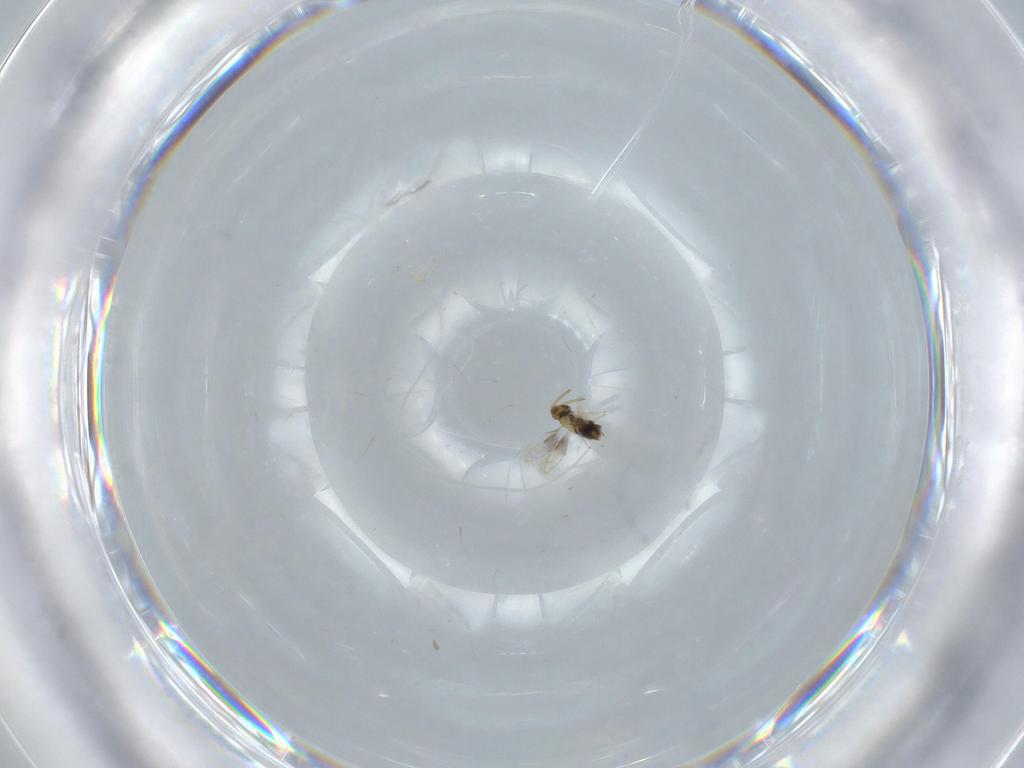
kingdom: Animalia
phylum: Arthropoda
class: Insecta
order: Hymenoptera
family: Aphelinidae
